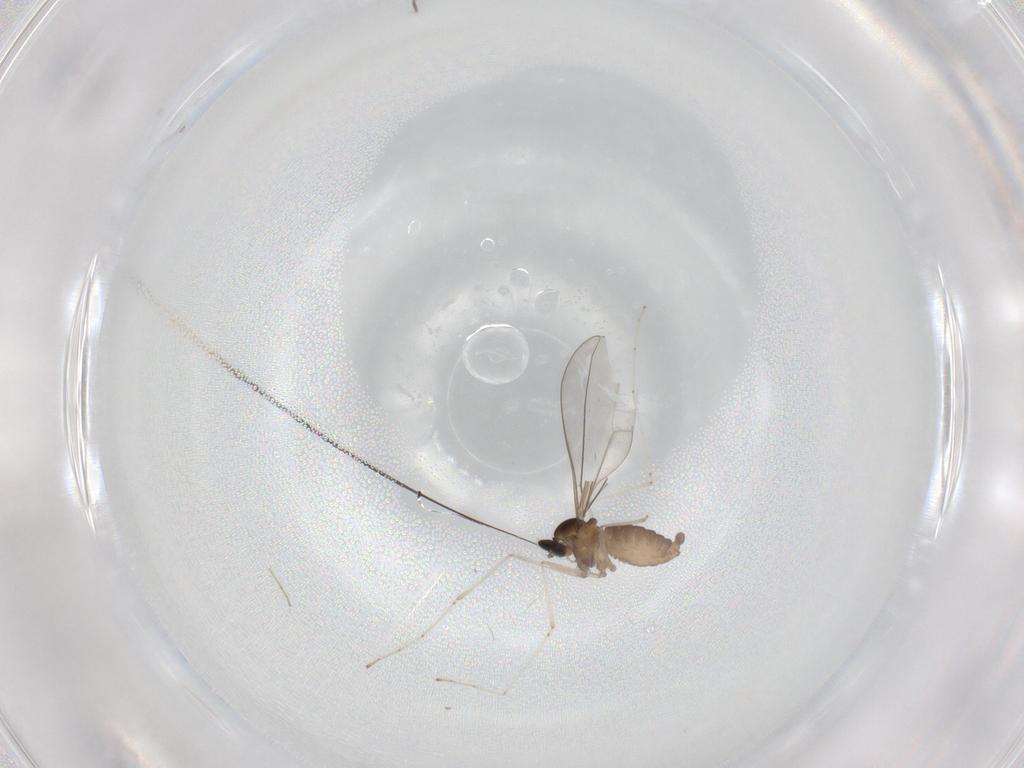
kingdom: Animalia
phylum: Arthropoda
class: Insecta
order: Diptera
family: Cecidomyiidae
